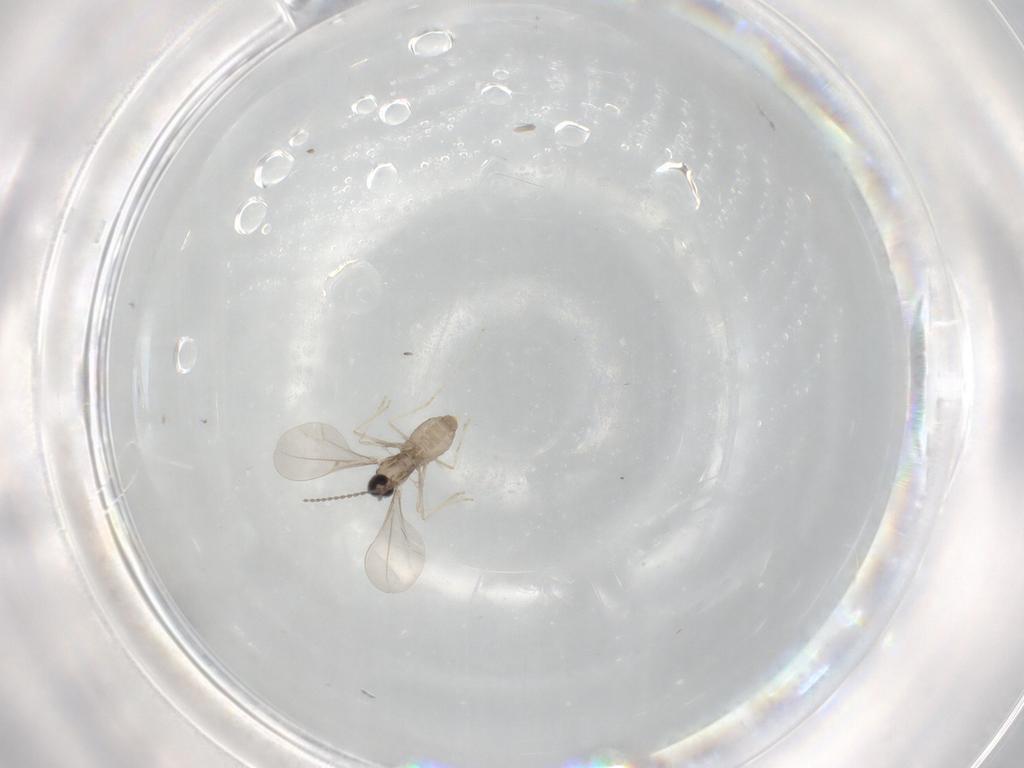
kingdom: Animalia
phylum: Arthropoda
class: Insecta
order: Diptera
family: Cecidomyiidae
